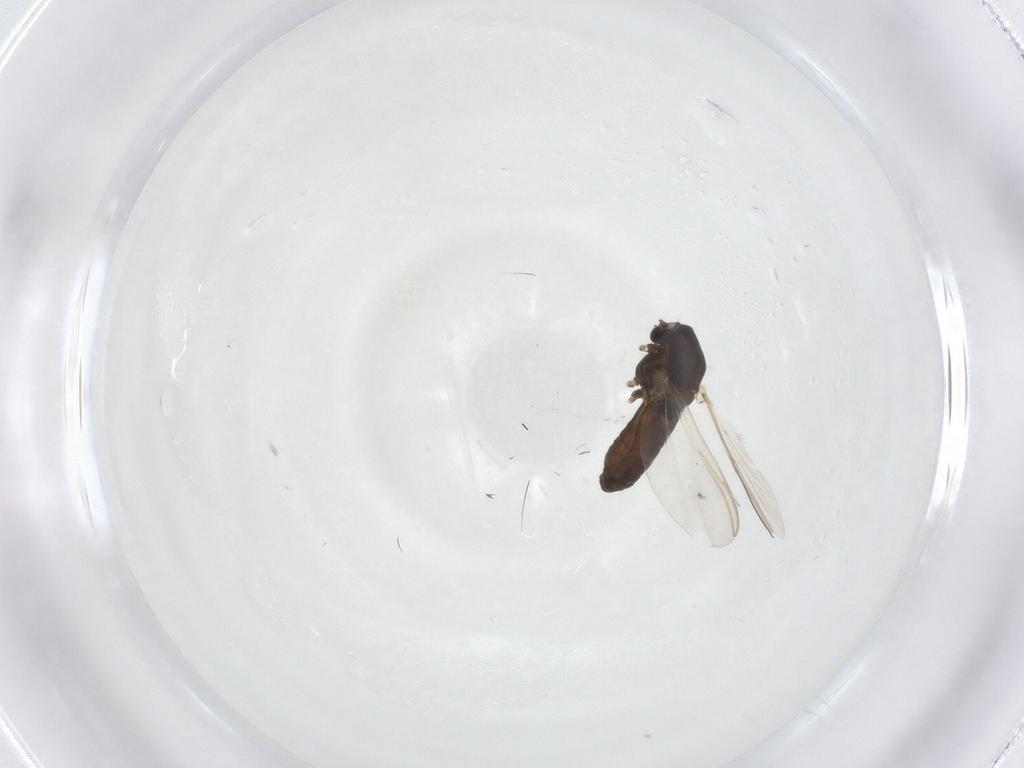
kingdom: Animalia
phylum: Arthropoda
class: Insecta
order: Diptera
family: Chironomidae
